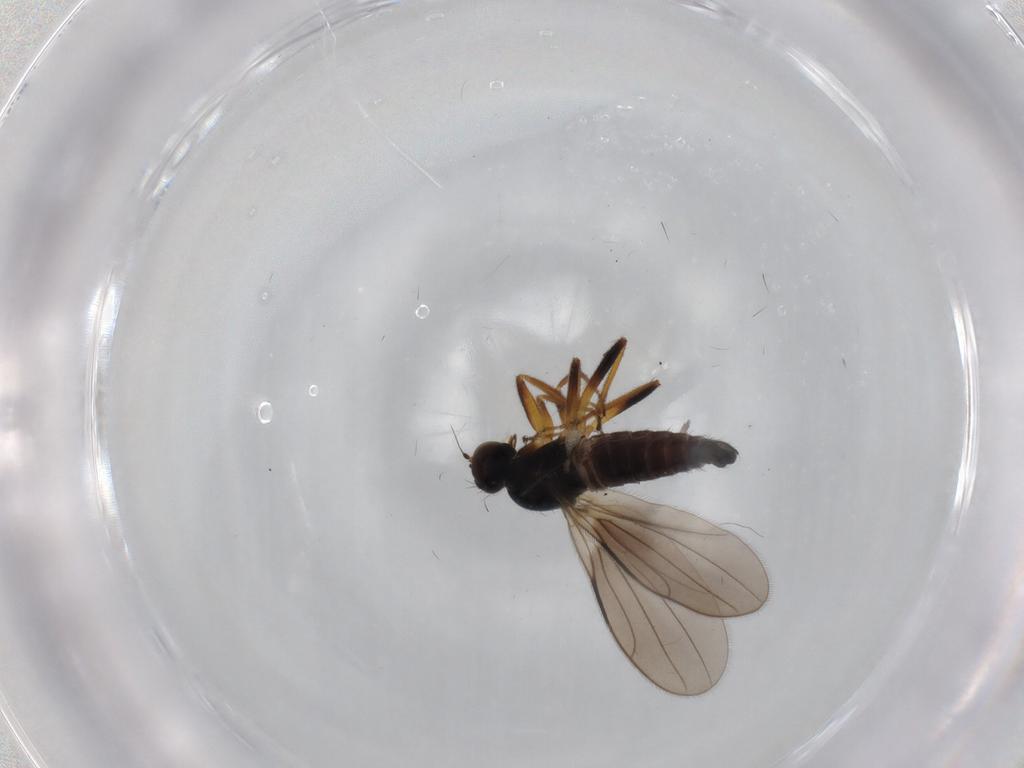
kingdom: Animalia
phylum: Arthropoda
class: Insecta
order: Diptera
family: Hybotidae
